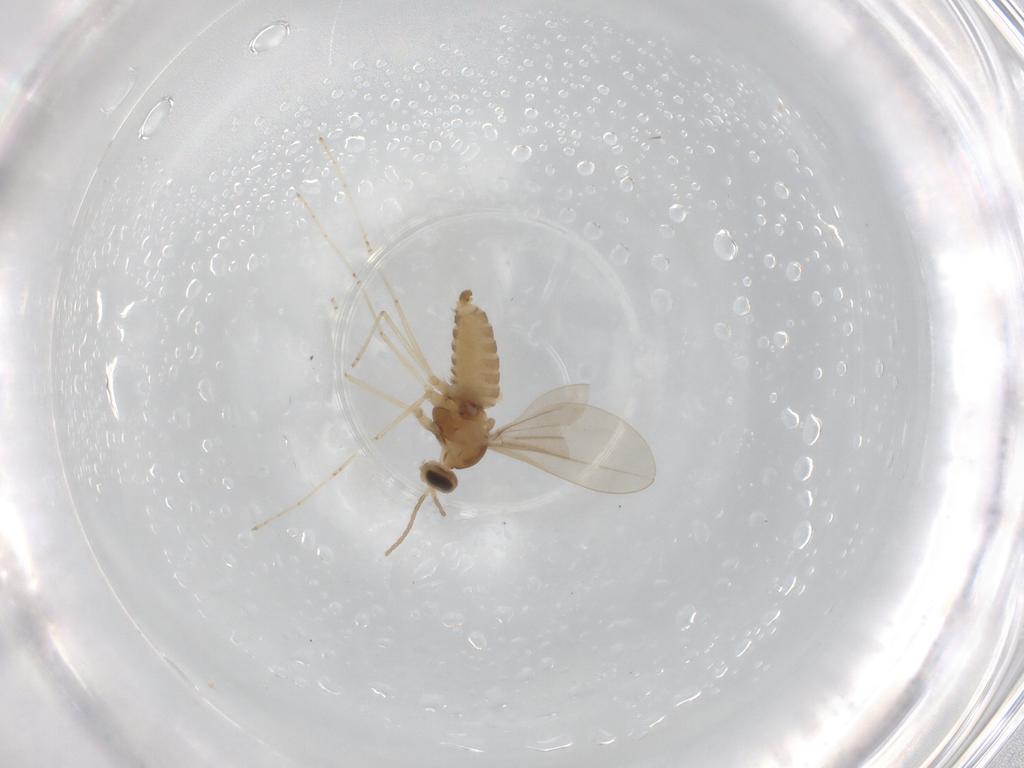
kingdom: Animalia
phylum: Arthropoda
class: Insecta
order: Diptera
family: Cecidomyiidae
